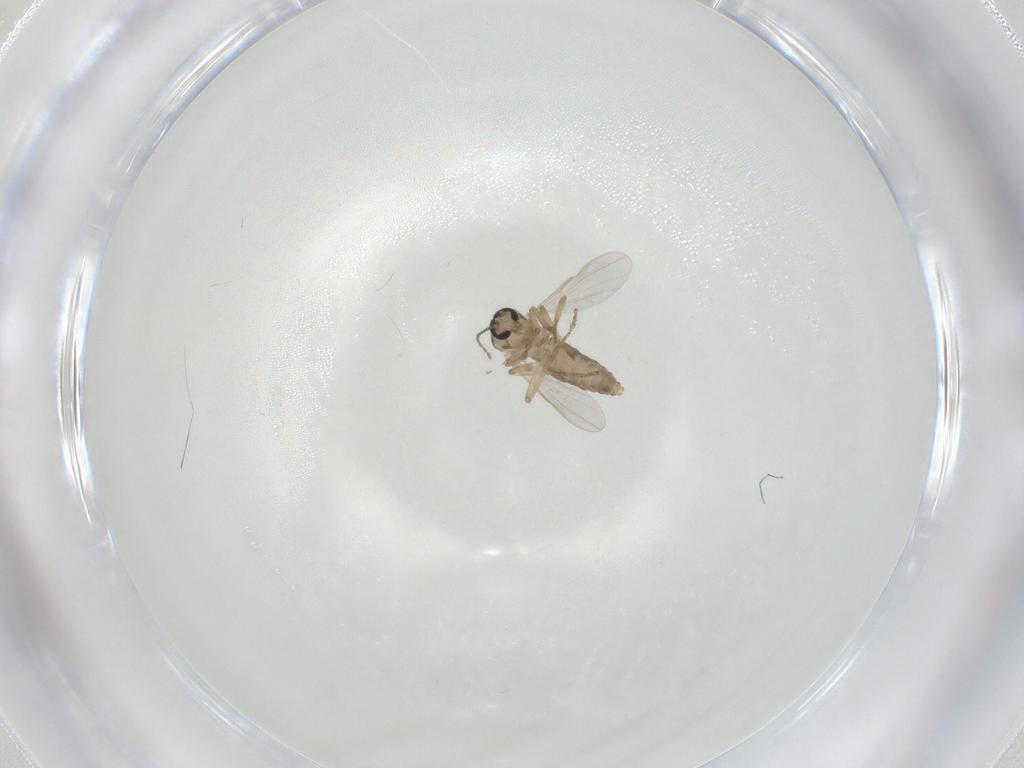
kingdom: Animalia
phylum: Arthropoda
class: Insecta
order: Diptera
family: Ceratopogonidae
